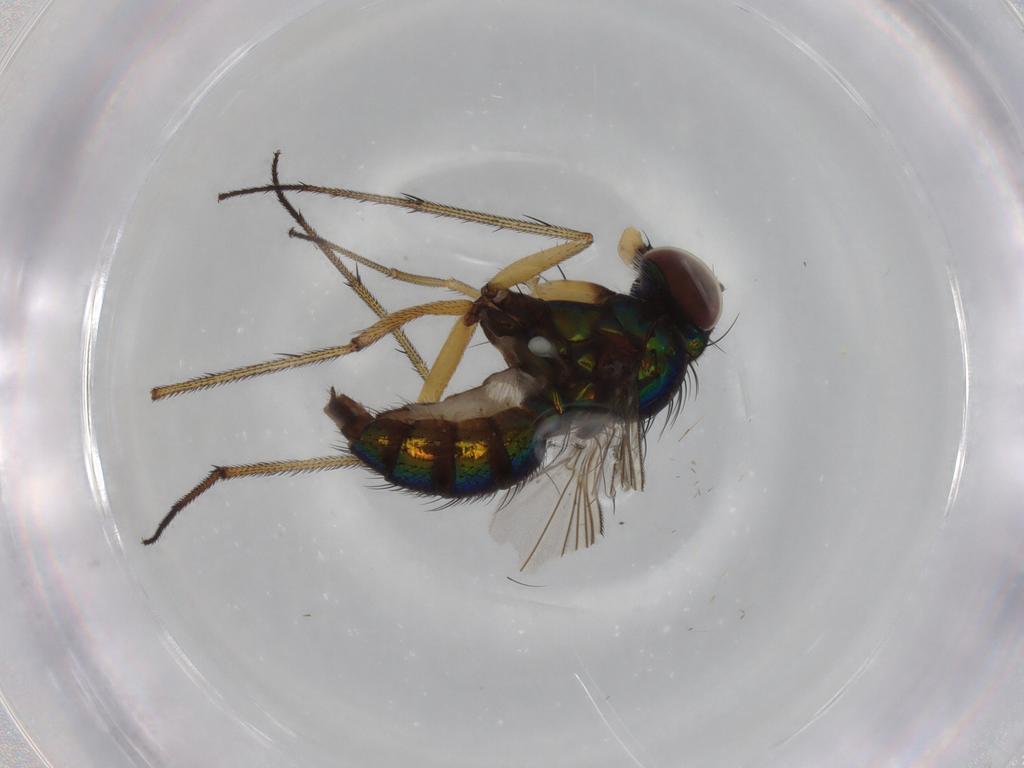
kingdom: Animalia
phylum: Arthropoda
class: Insecta
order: Diptera
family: Dolichopodidae
